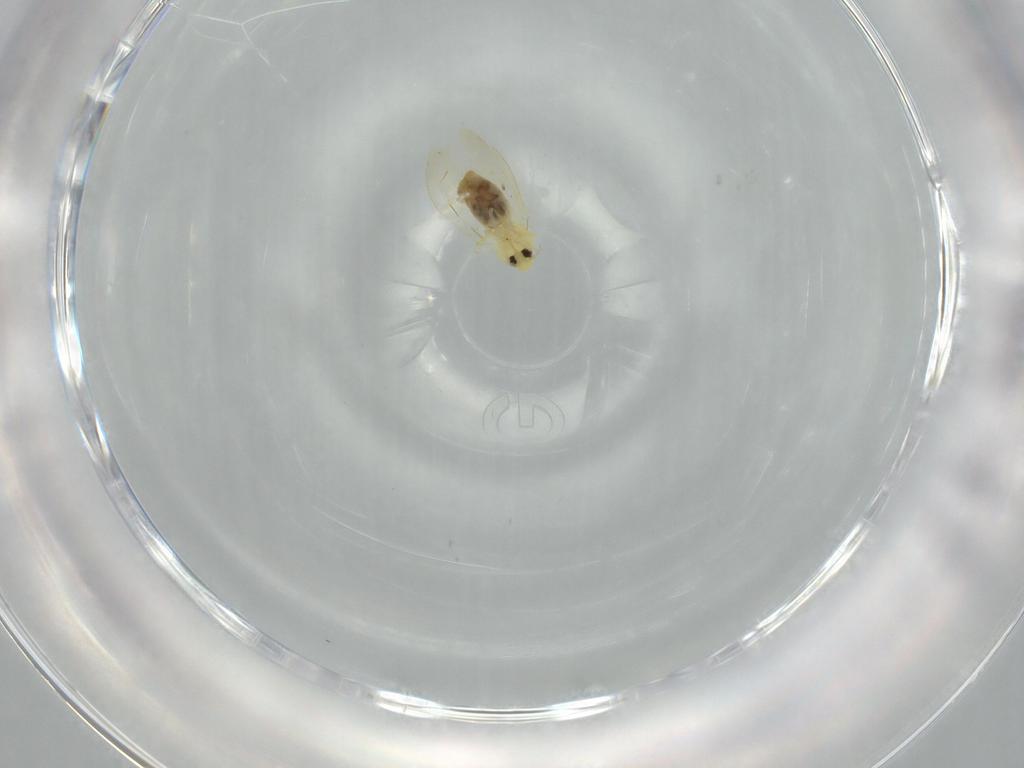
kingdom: Animalia
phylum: Arthropoda
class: Insecta
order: Hemiptera
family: Aleyrodidae
